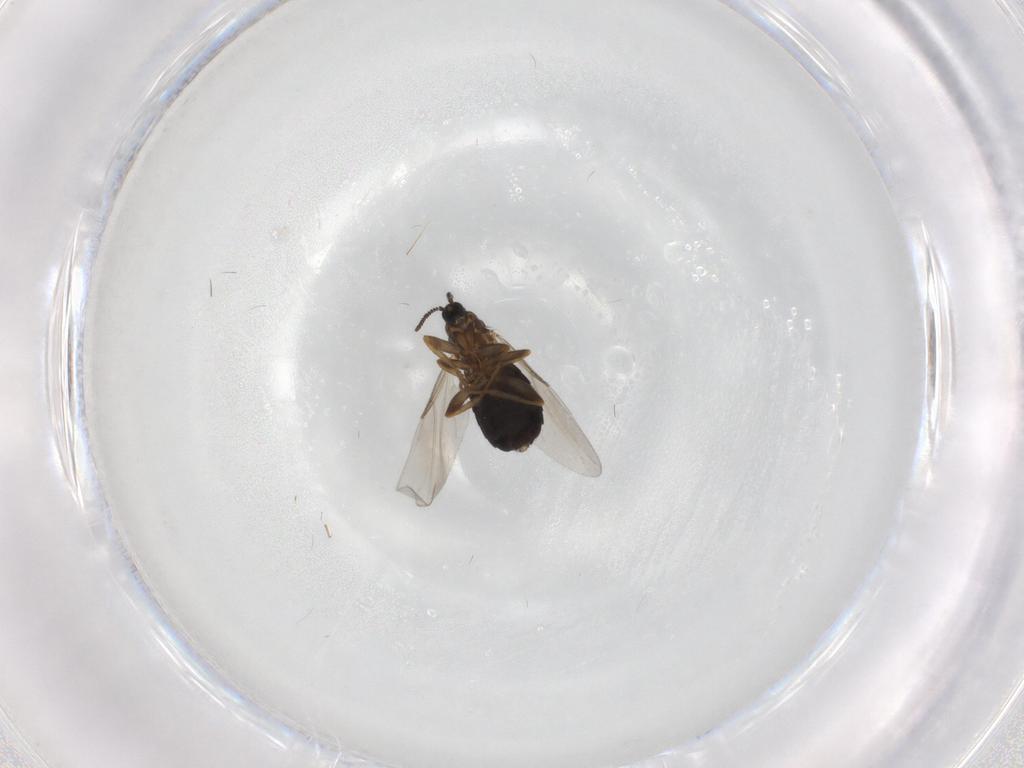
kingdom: Animalia
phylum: Arthropoda
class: Insecta
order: Diptera
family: Scatopsidae
